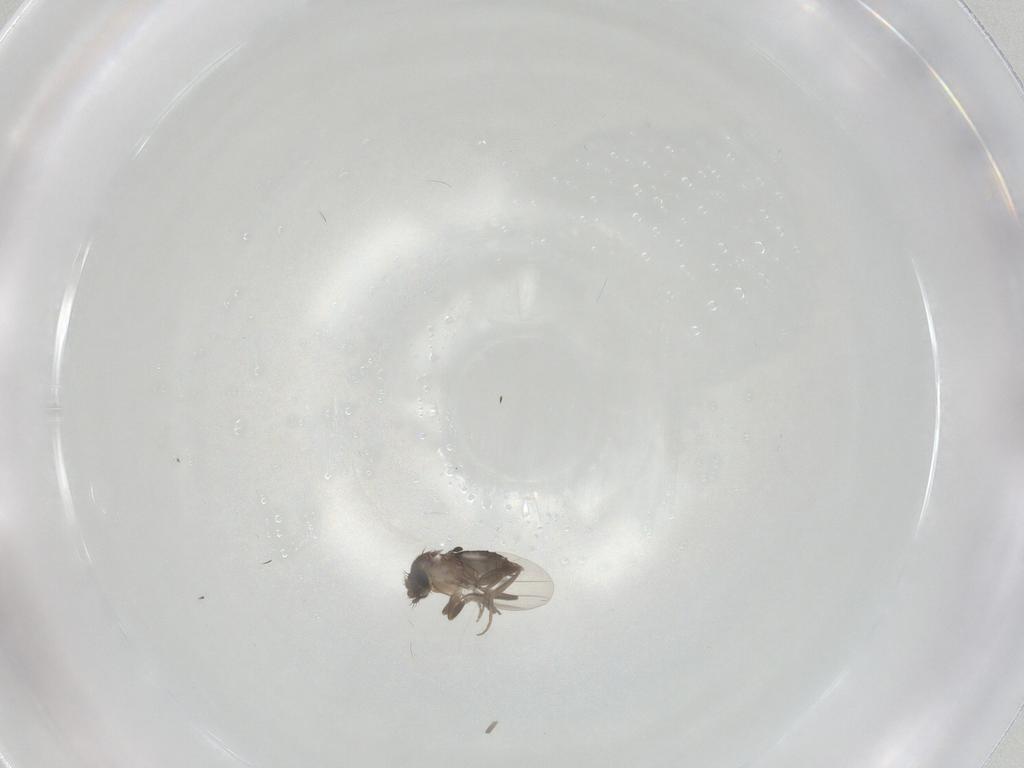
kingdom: Animalia
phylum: Arthropoda
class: Insecta
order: Diptera
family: Phoridae
